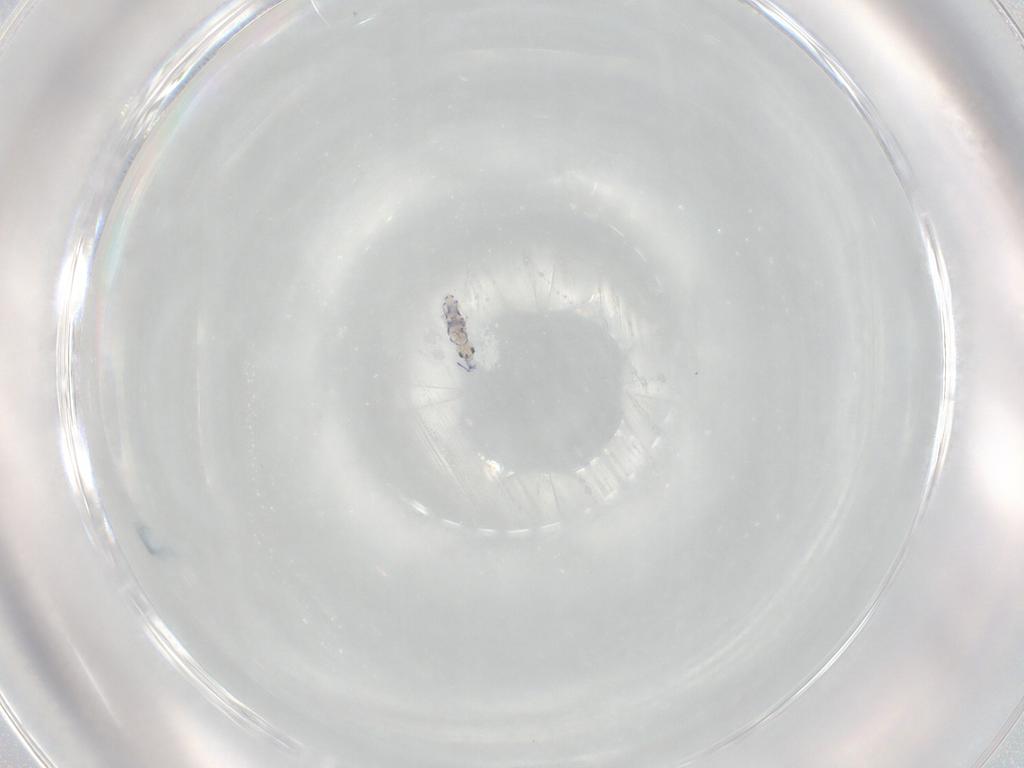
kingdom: Animalia
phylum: Arthropoda
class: Collembola
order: Entomobryomorpha
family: Entomobryidae
